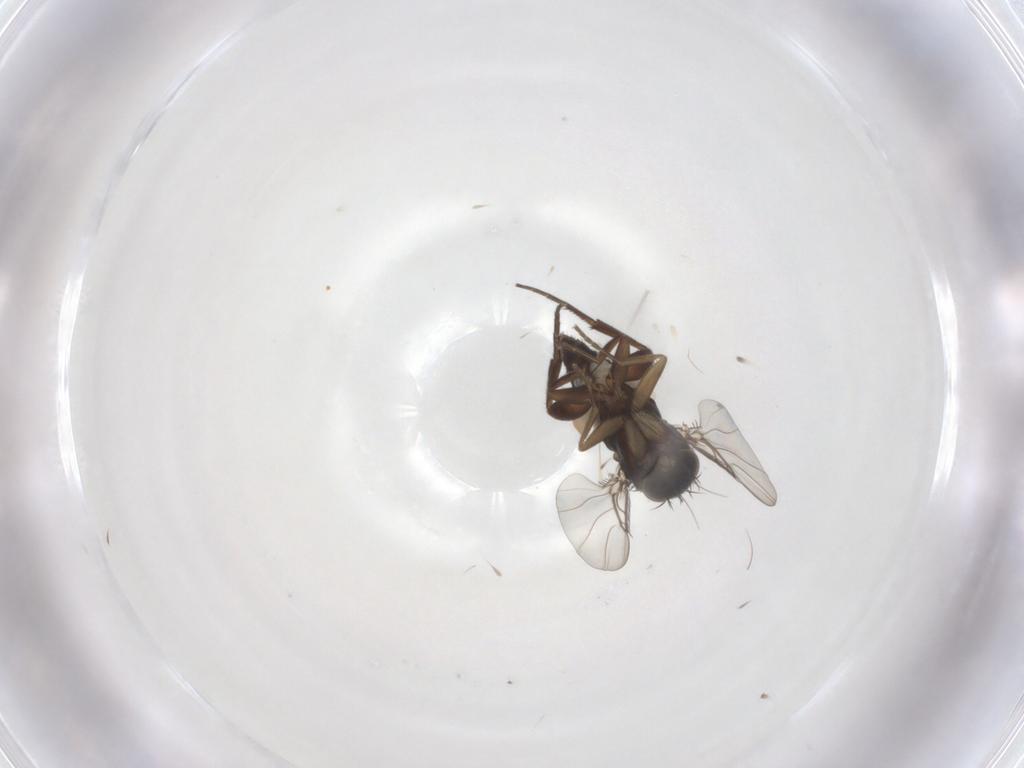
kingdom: Animalia
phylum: Arthropoda
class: Insecta
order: Diptera
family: Phoridae
